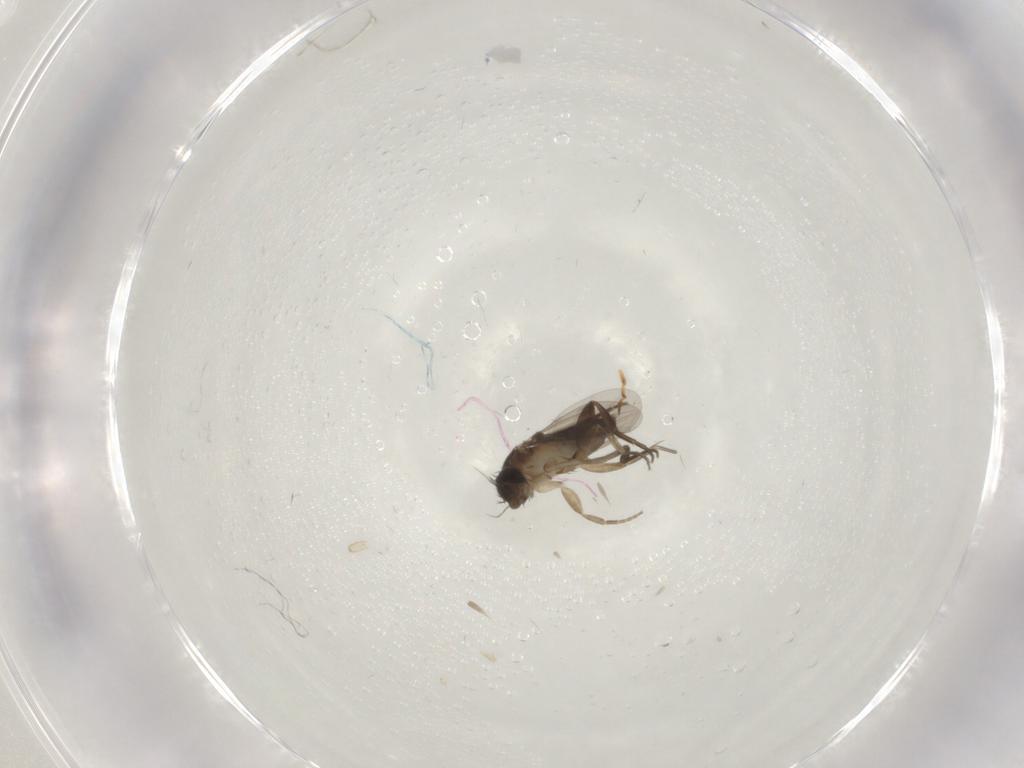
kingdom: Animalia
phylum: Arthropoda
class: Insecta
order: Diptera
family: Phoridae
